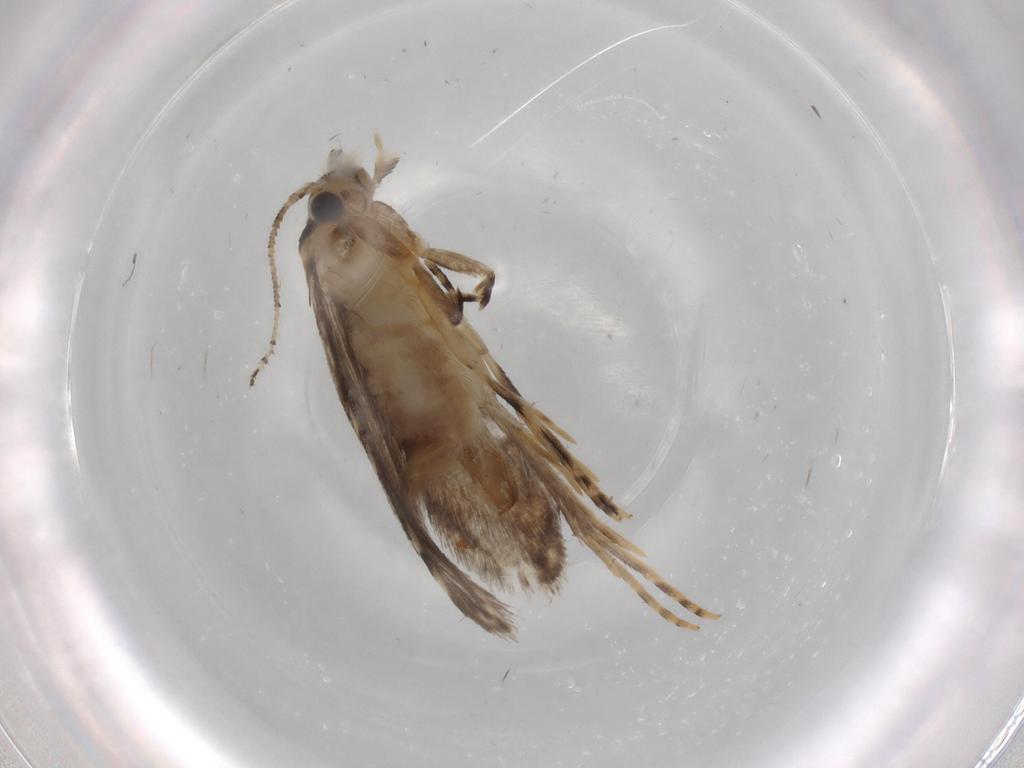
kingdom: Animalia
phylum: Arthropoda
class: Insecta
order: Lepidoptera
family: Tineidae
